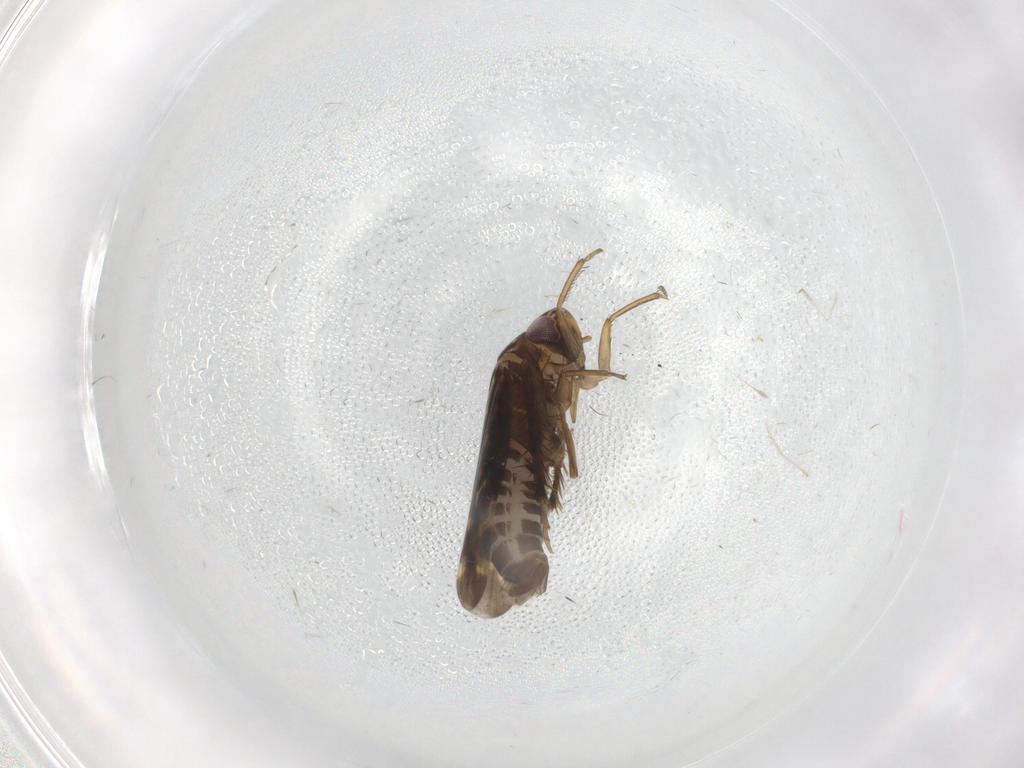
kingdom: Animalia
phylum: Arthropoda
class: Insecta
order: Hemiptera
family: Cicadellidae
